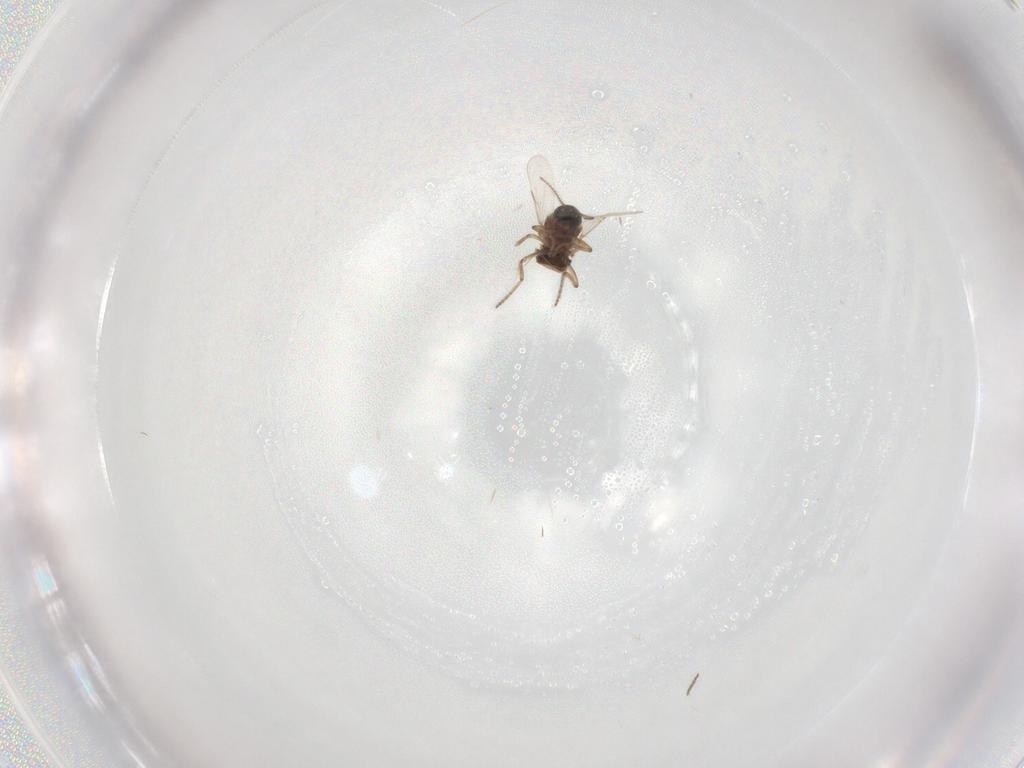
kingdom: Animalia
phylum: Arthropoda
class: Insecta
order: Diptera
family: Ceratopogonidae
